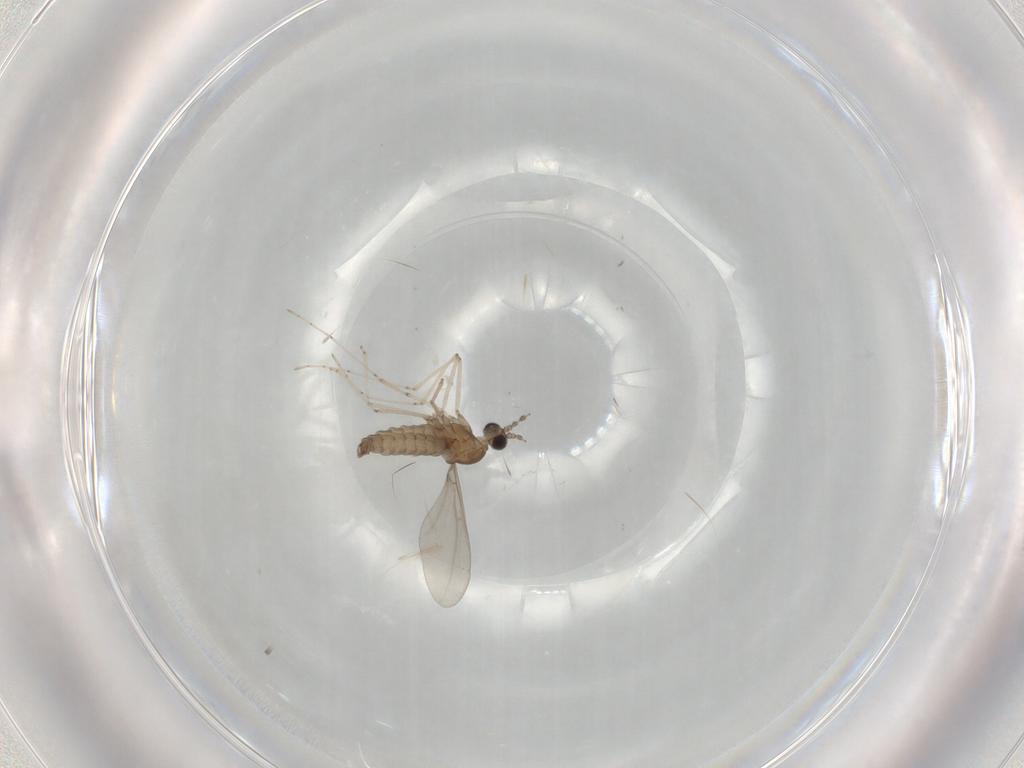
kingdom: Animalia
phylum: Arthropoda
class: Insecta
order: Diptera
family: Cecidomyiidae
